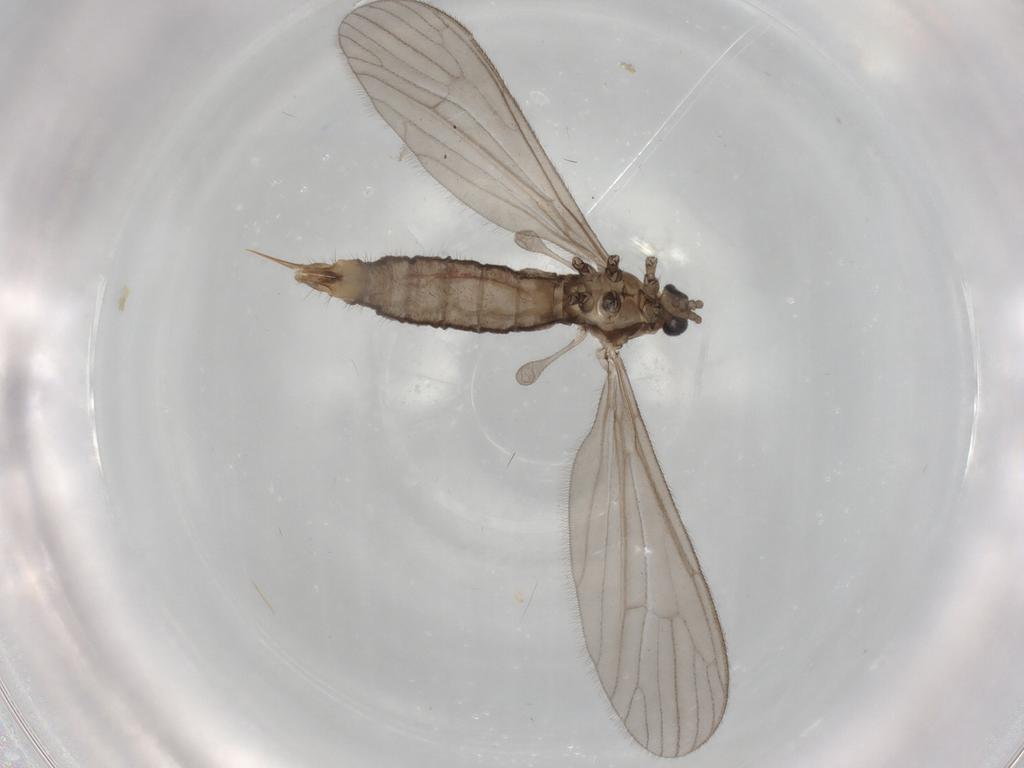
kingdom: Animalia
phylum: Arthropoda
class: Insecta
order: Diptera
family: Limoniidae
